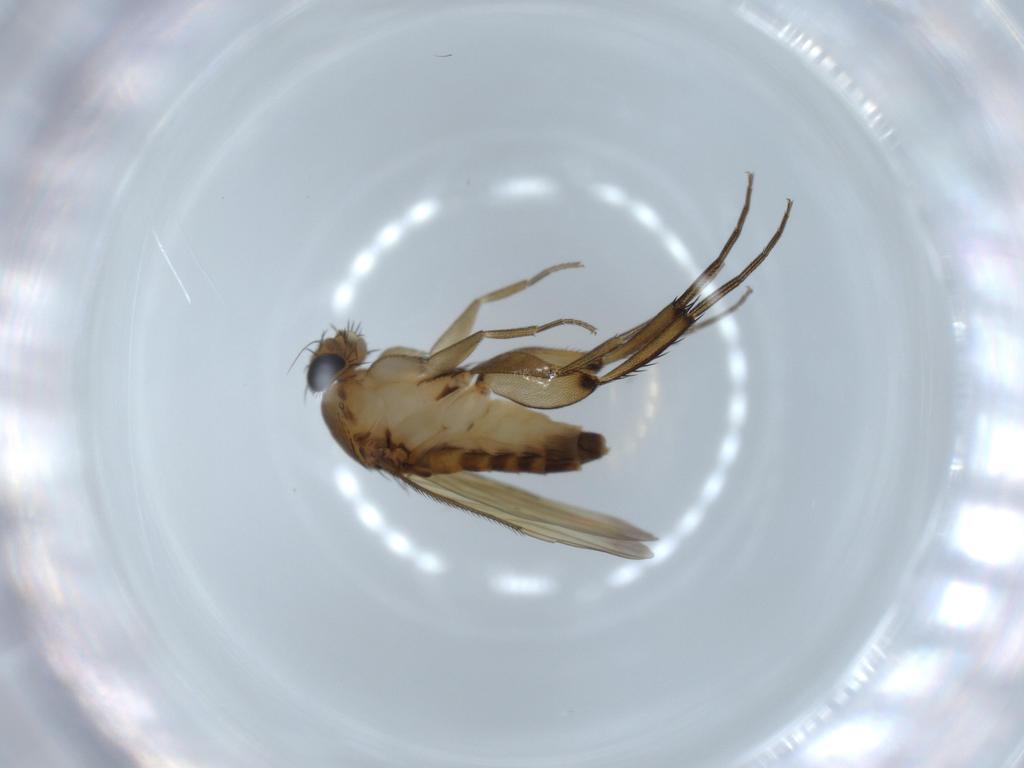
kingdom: Animalia
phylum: Arthropoda
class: Insecta
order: Diptera
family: Phoridae
